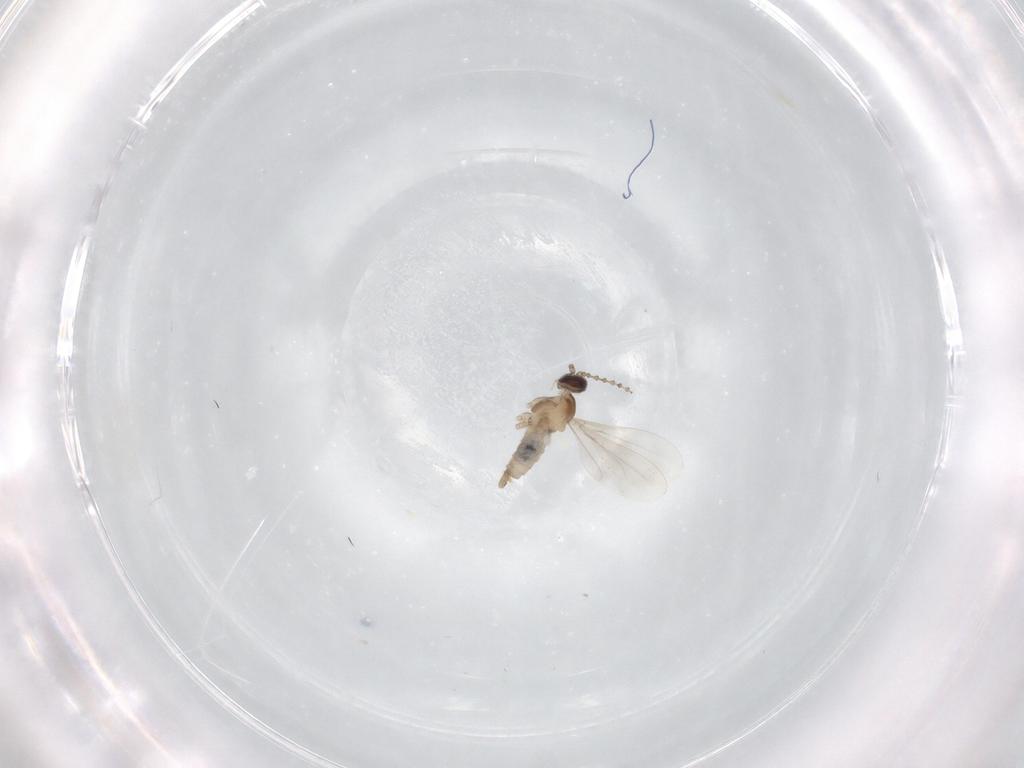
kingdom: Animalia
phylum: Arthropoda
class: Insecta
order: Diptera
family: Cecidomyiidae
